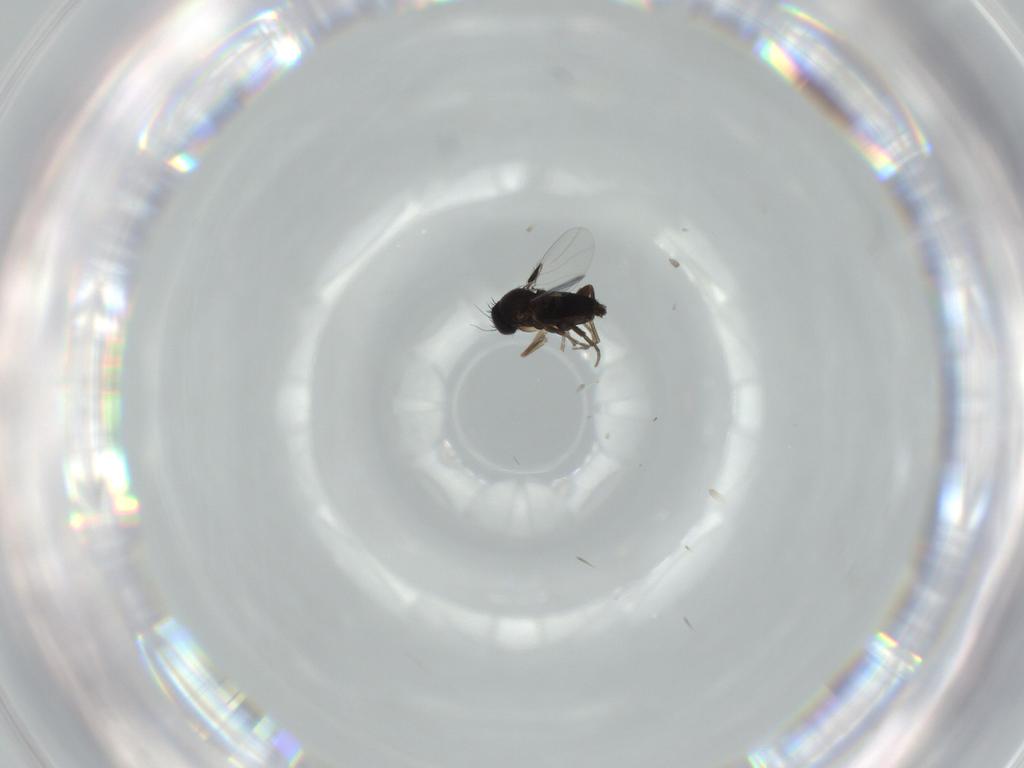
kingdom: Animalia
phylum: Arthropoda
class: Insecta
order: Diptera
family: Phoridae
